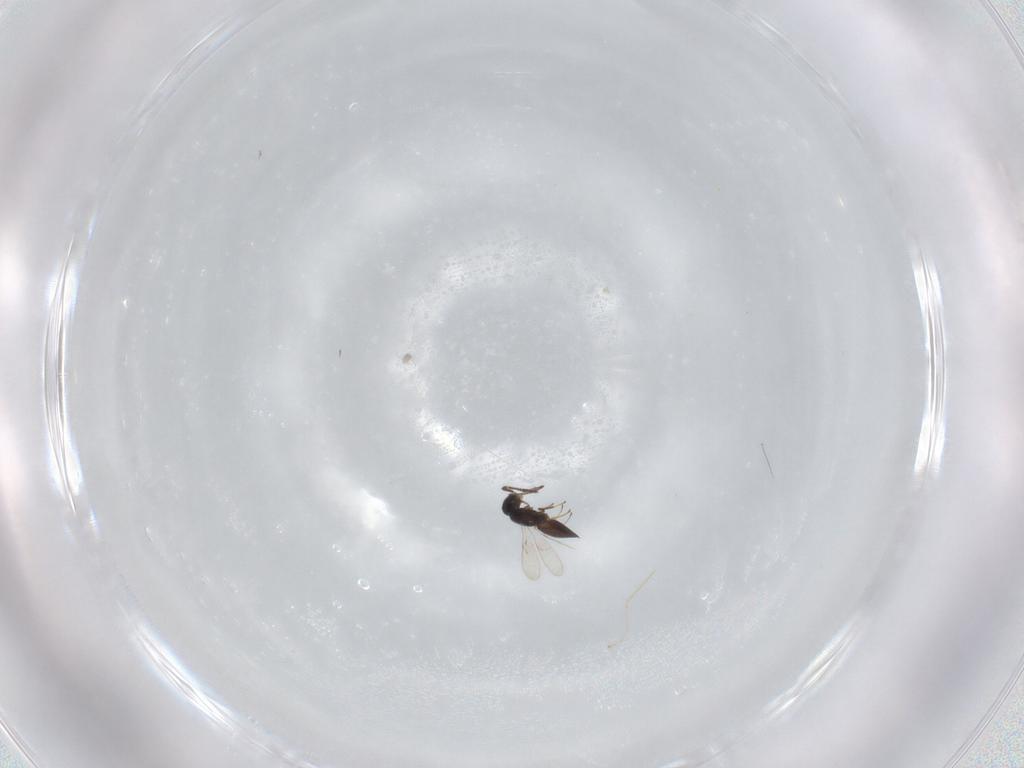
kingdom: Animalia
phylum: Arthropoda
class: Insecta
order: Hymenoptera
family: Scelionidae
